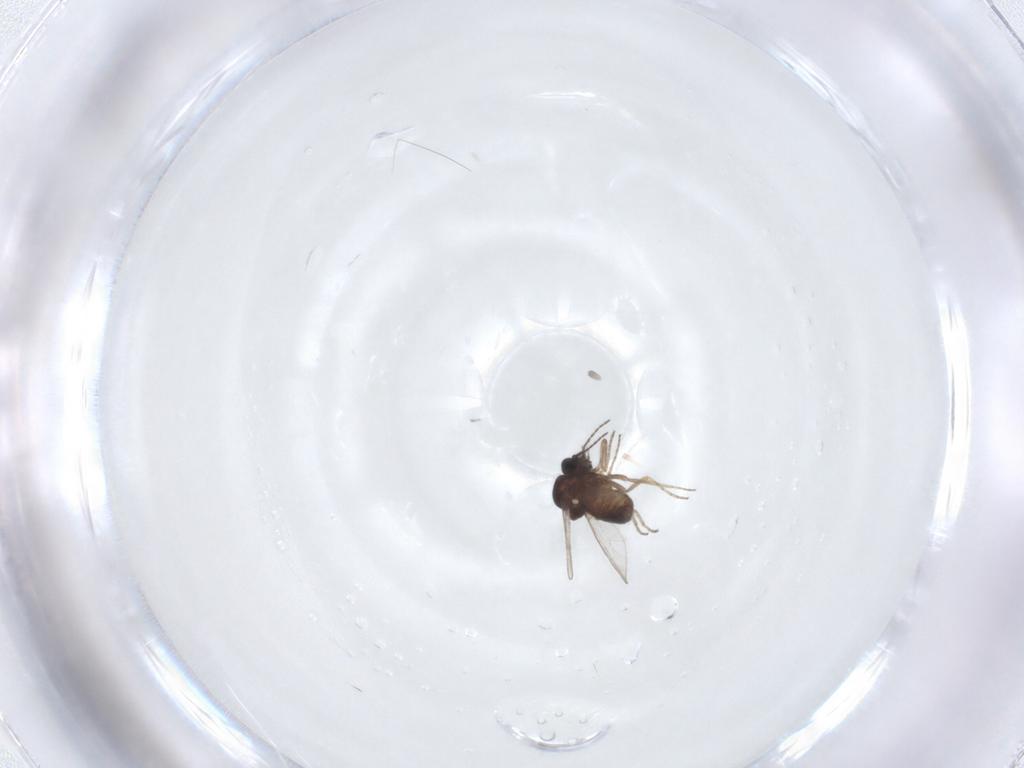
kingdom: Animalia
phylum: Arthropoda
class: Insecta
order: Diptera
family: Ceratopogonidae
